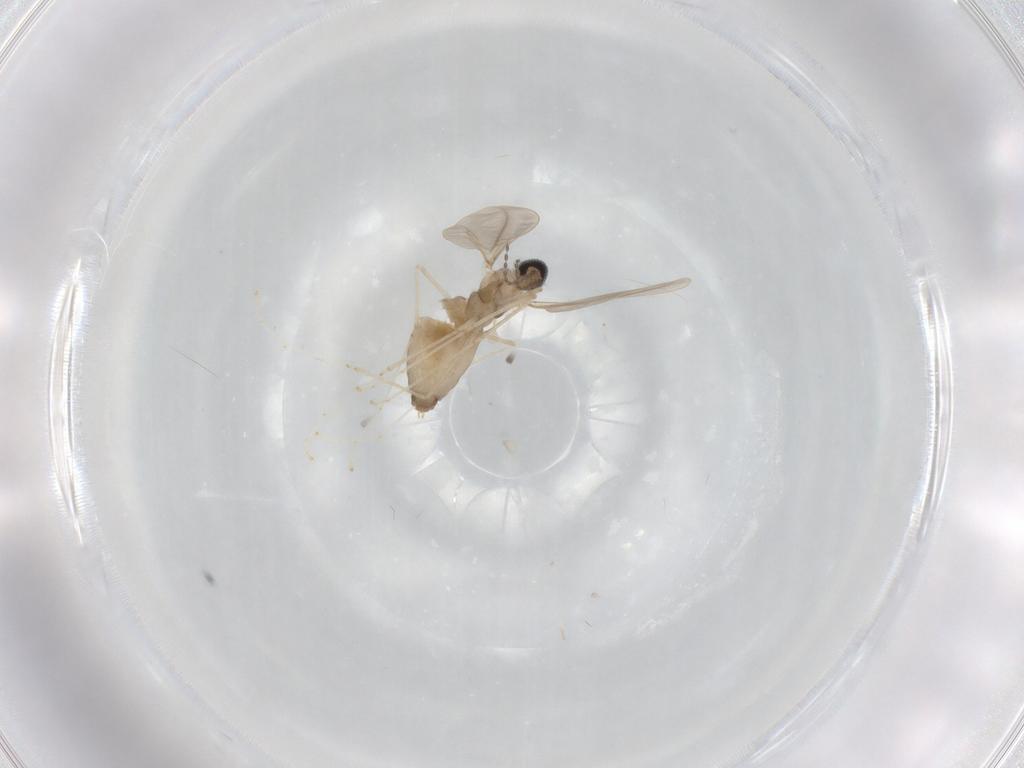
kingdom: Animalia
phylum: Arthropoda
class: Insecta
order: Diptera
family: Cecidomyiidae
